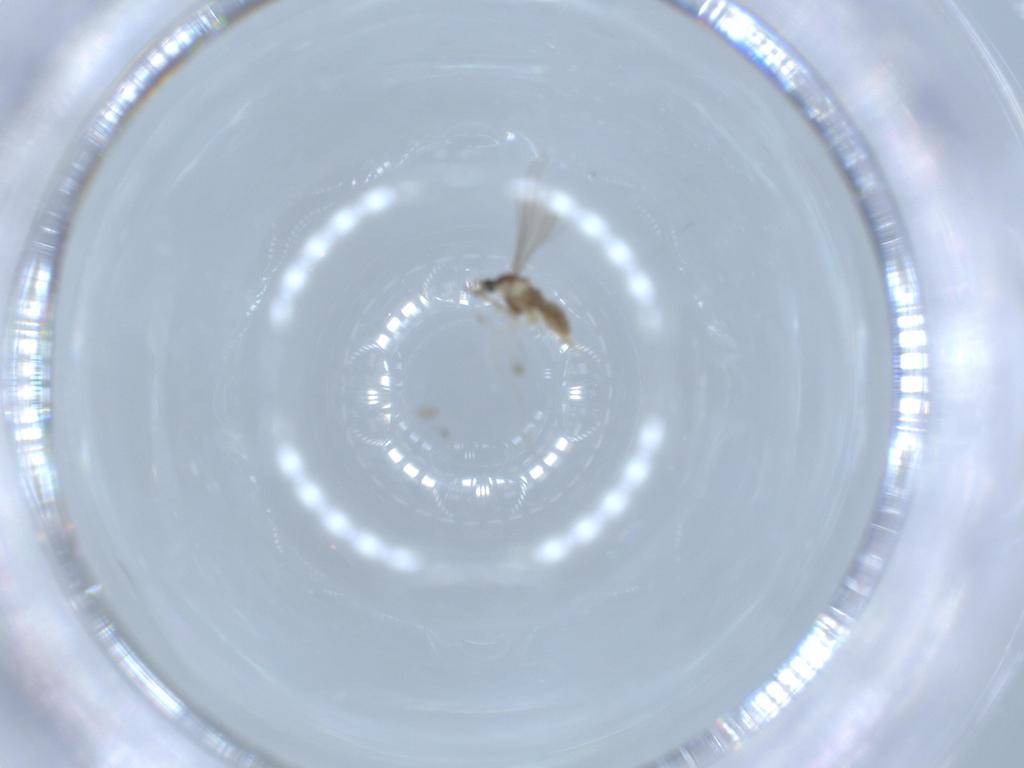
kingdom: Animalia
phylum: Arthropoda
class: Insecta
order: Diptera
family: Cecidomyiidae
